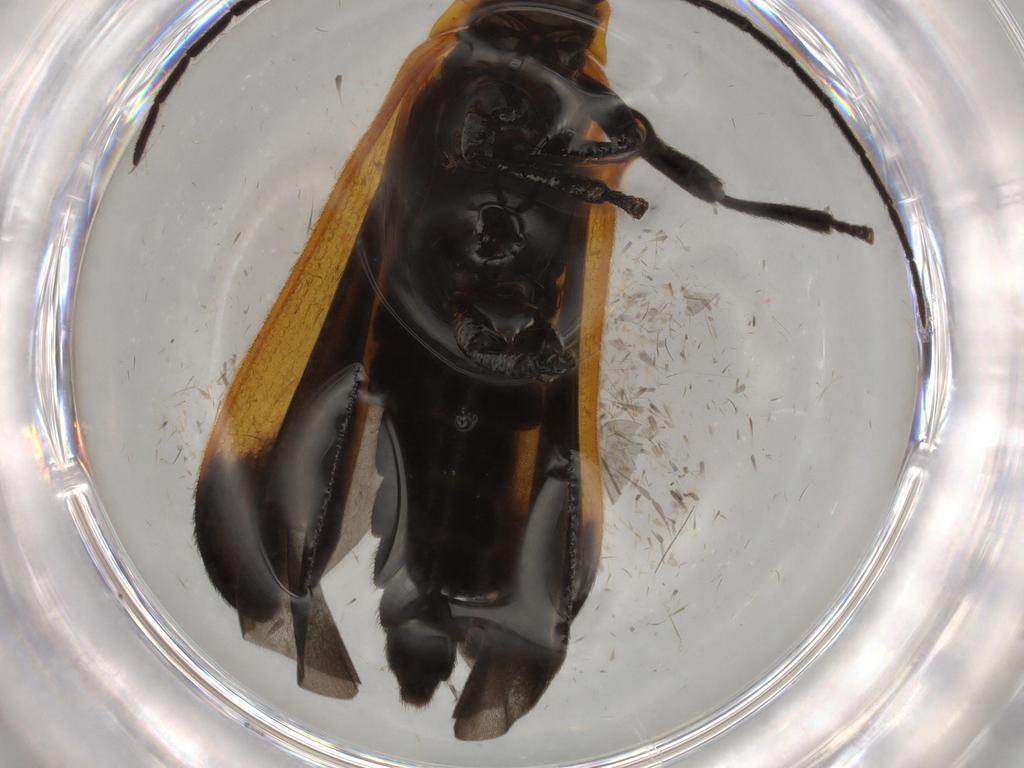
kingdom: Animalia
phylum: Arthropoda
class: Insecta
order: Coleoptera
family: Lycidae
